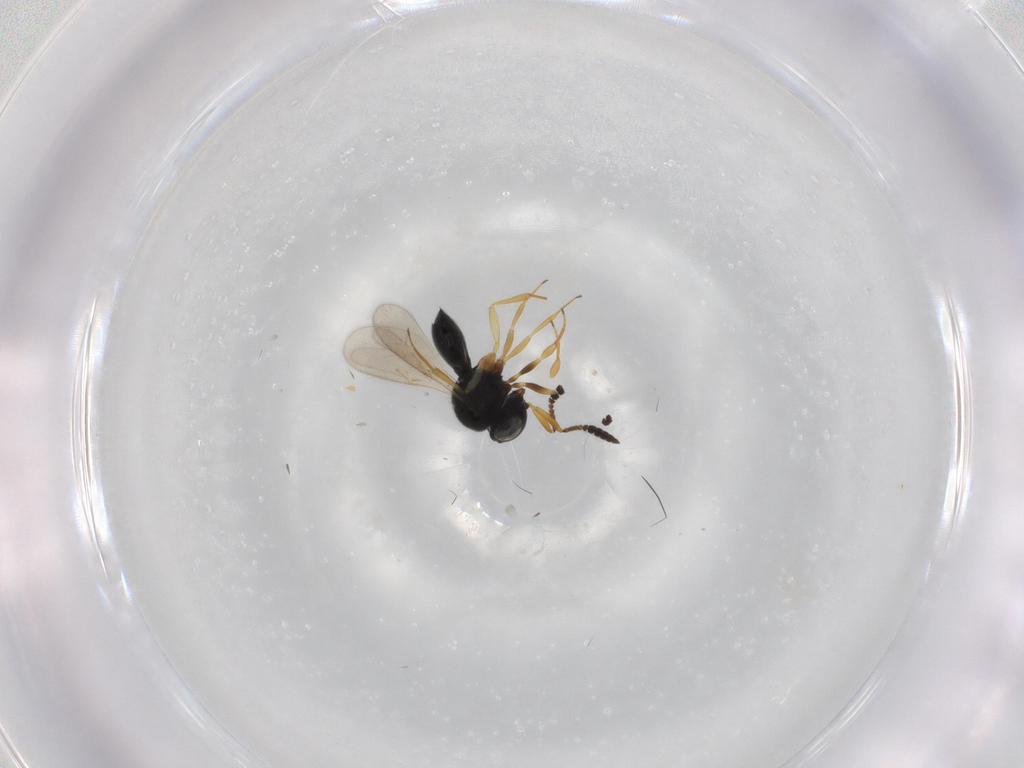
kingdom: Animalia
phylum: Arthropoda
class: Insecta
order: Hymenoptera
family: Scelionidae
